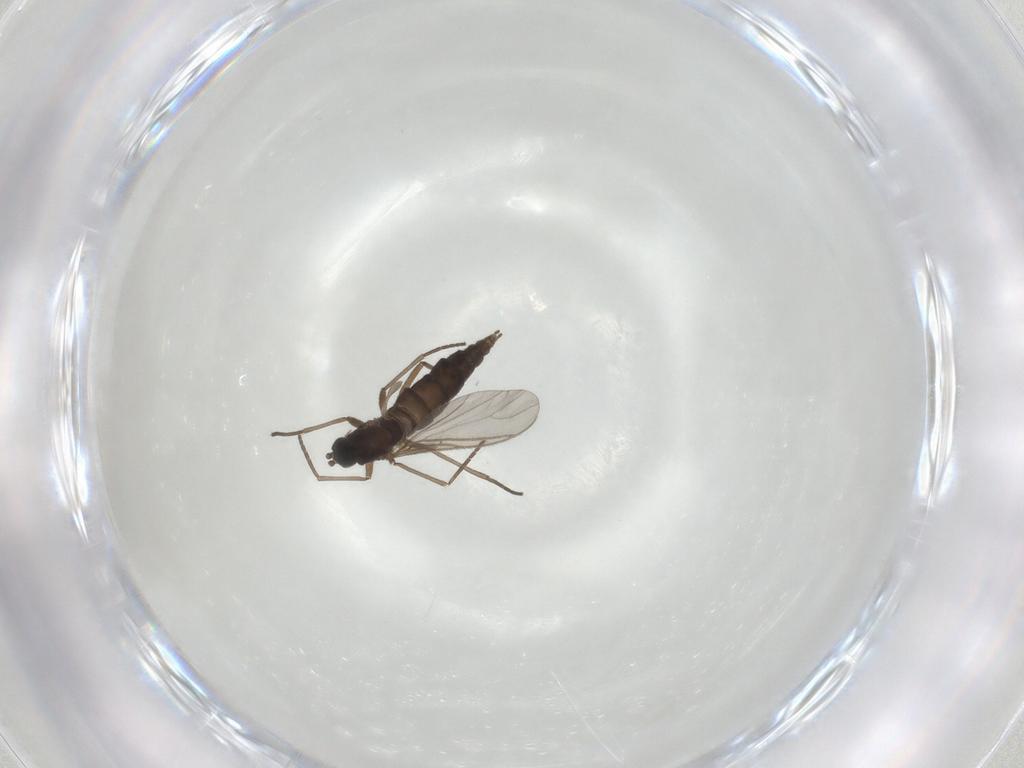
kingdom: Animalia
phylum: Arthropoda
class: Insecta
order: Diptera
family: Sciaridae
